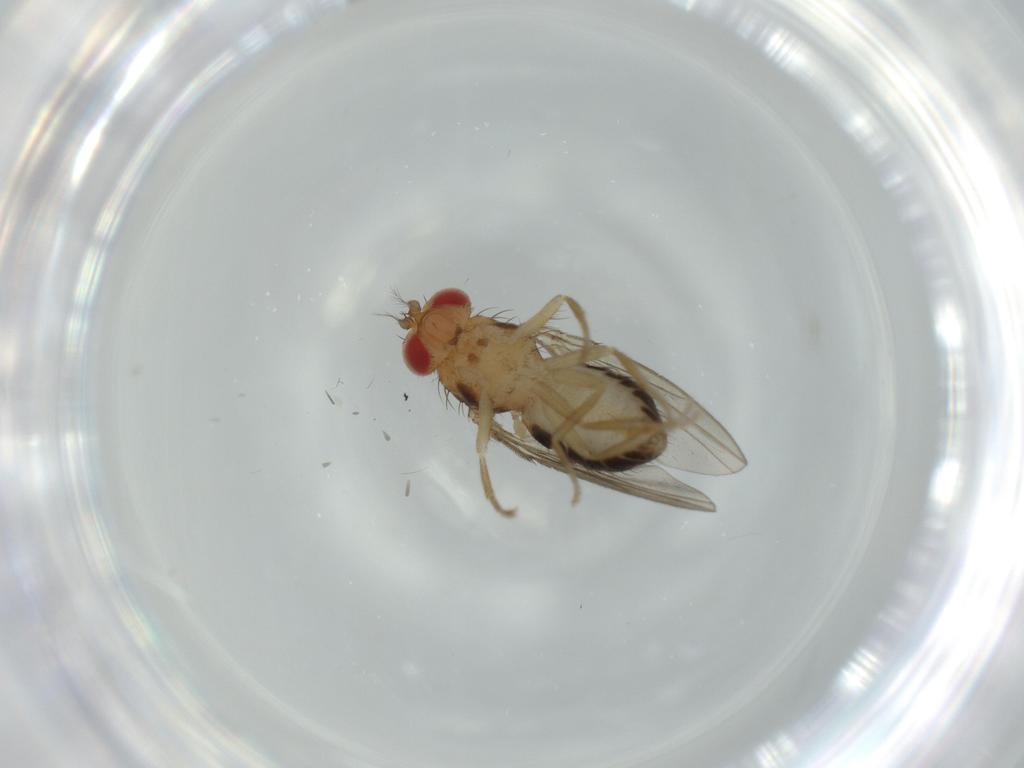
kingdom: Animalia
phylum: Arthropoda
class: Insecta
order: Diptera
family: Drosophilidae
